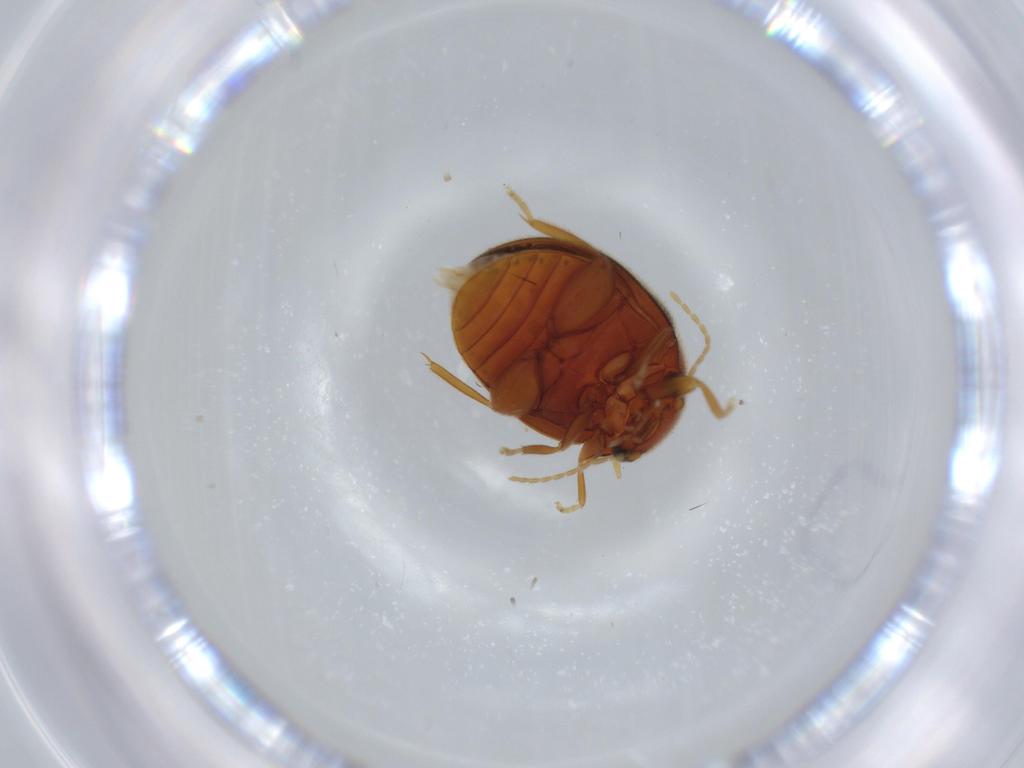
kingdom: Animalia
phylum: Arthropoda
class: Insecta
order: Coleoptera
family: Scirtidae
